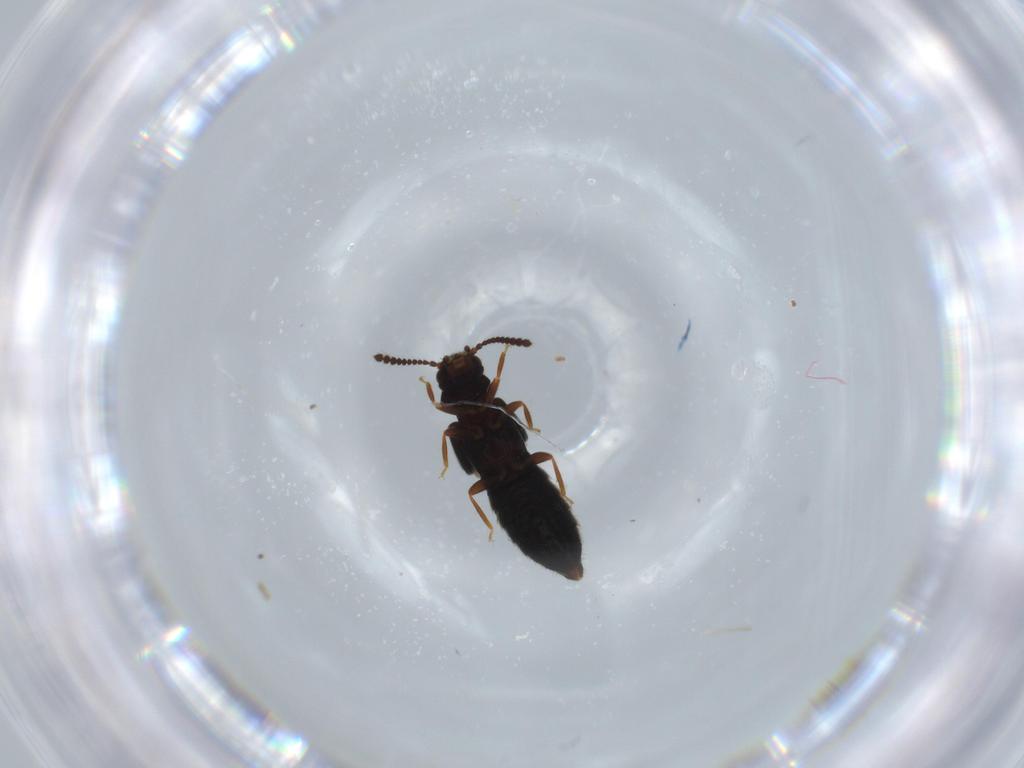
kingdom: Animalia
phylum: Arthropoda
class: Insecta
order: Coleoptera
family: Staphylinidae
